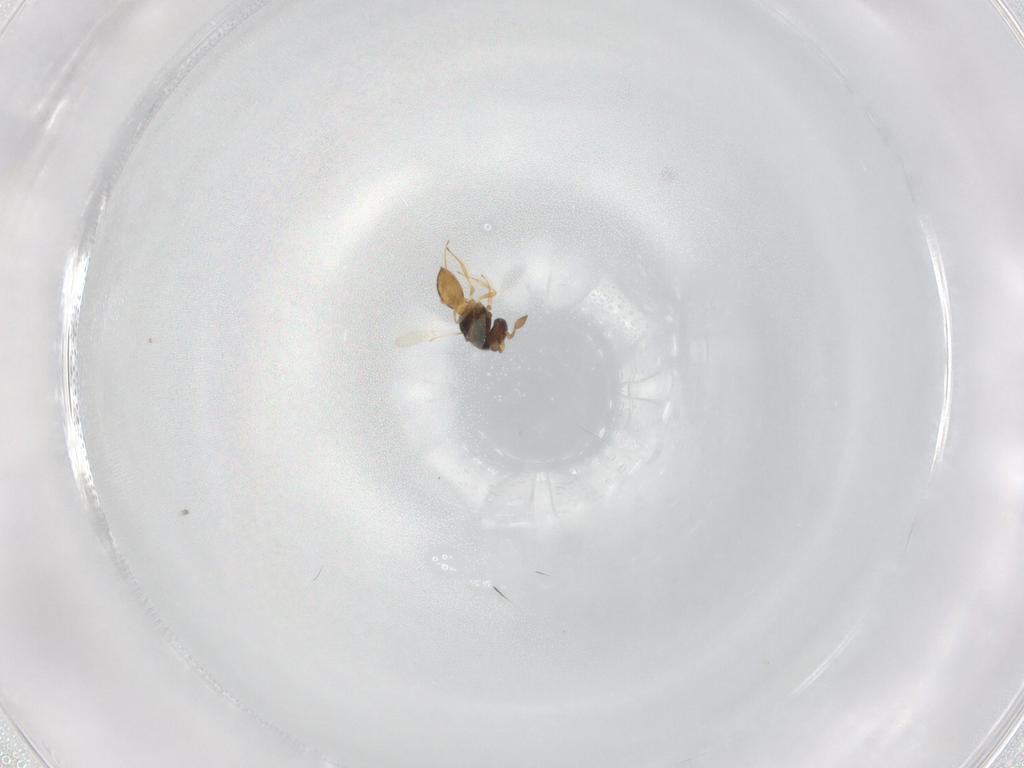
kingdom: Animalia
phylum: Arthropoda
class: Insecta
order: Hymenoptera
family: Scelionidae
